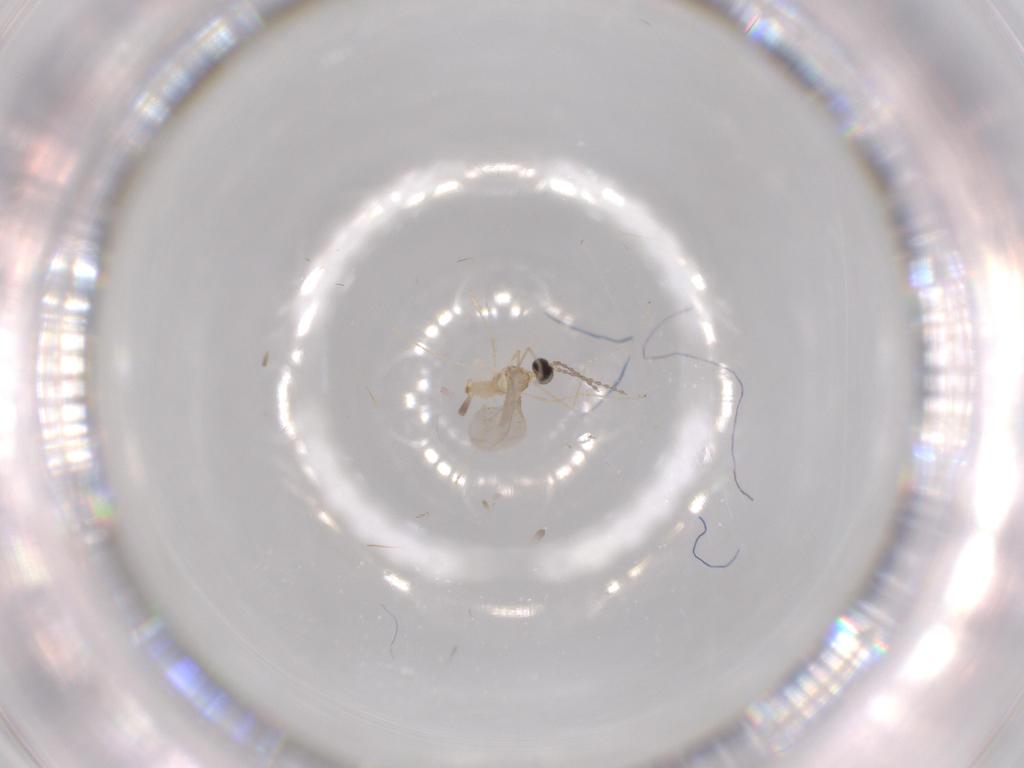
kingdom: Animalia
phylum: Arthropoda
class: Insecta
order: Diptera
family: Cecidomyiidae
